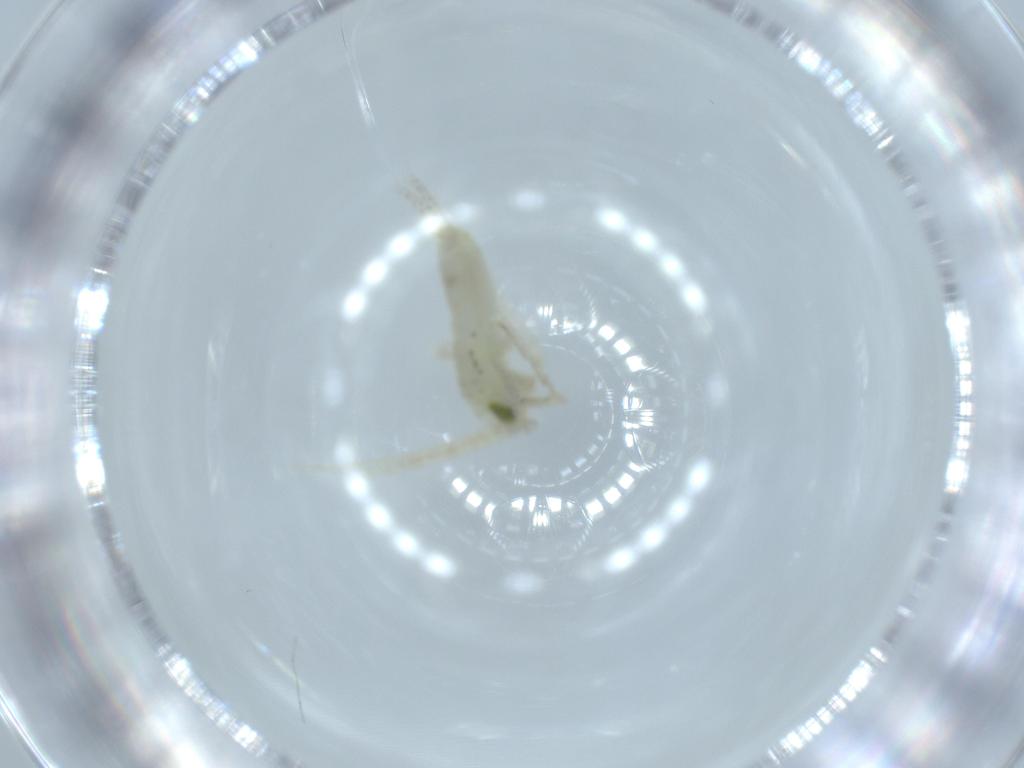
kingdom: Animalia
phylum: Arthropoda
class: Insecta
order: Orthoptera
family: Trigonidiidae
